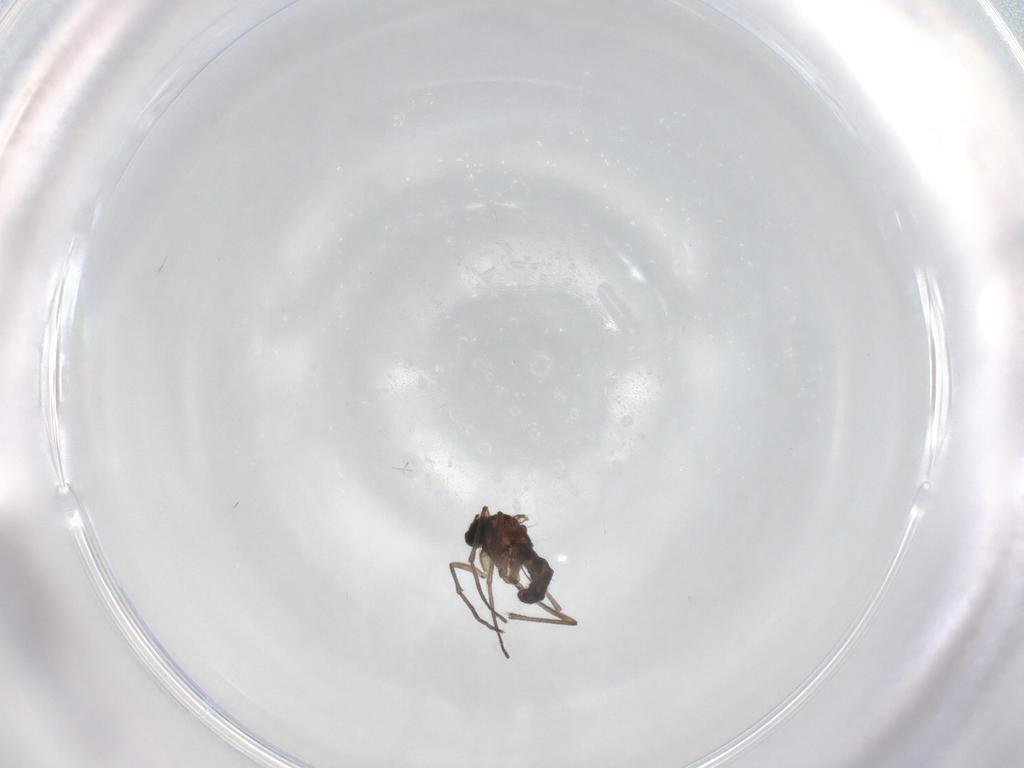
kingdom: Animalia
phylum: Arthropoda
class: Insecta
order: Diptera
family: Sciaridae
